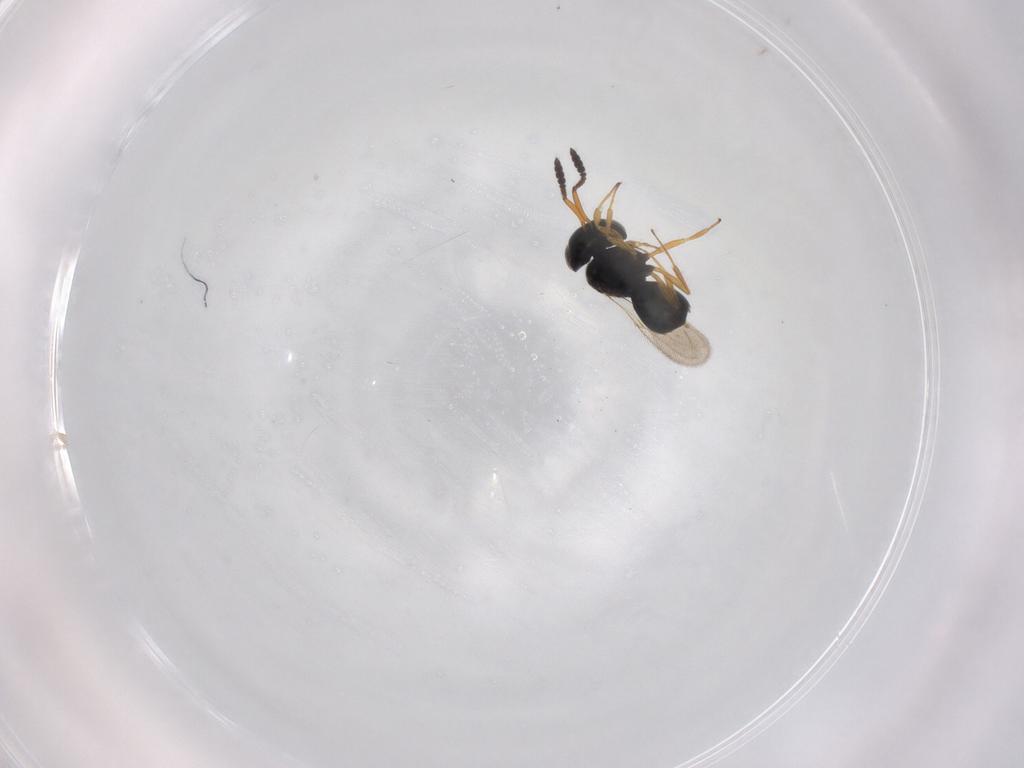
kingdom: Animalia
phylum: Arthropoda
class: Insecta
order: Hymenoptera
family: Scelionidae
